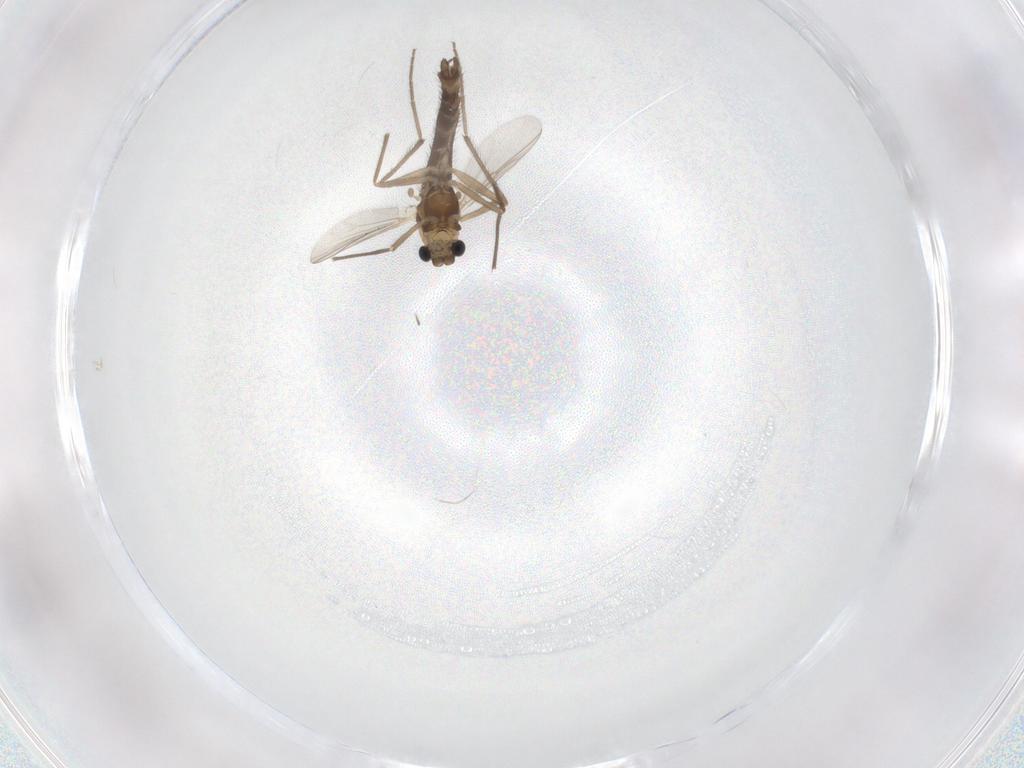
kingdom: Animalia
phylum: Arthropoda
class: Insecta
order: Diptera
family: Chironomidae
